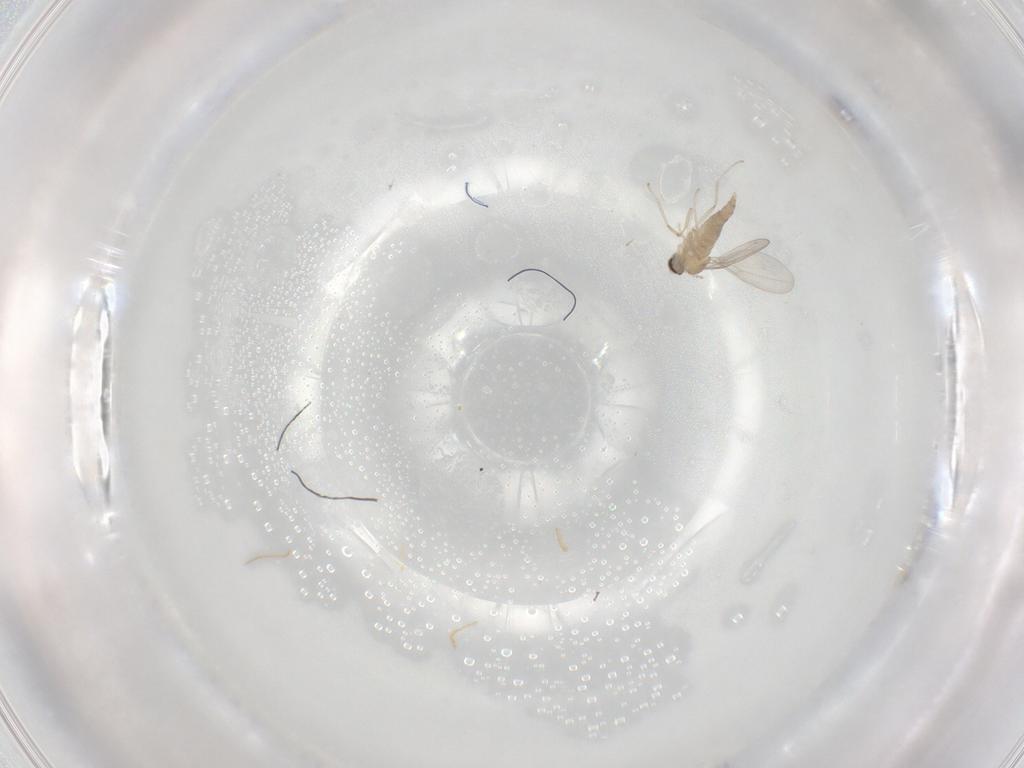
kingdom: Animalia
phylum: Arthropoda
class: Insecta
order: Diptera
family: Cecidomyiidae
